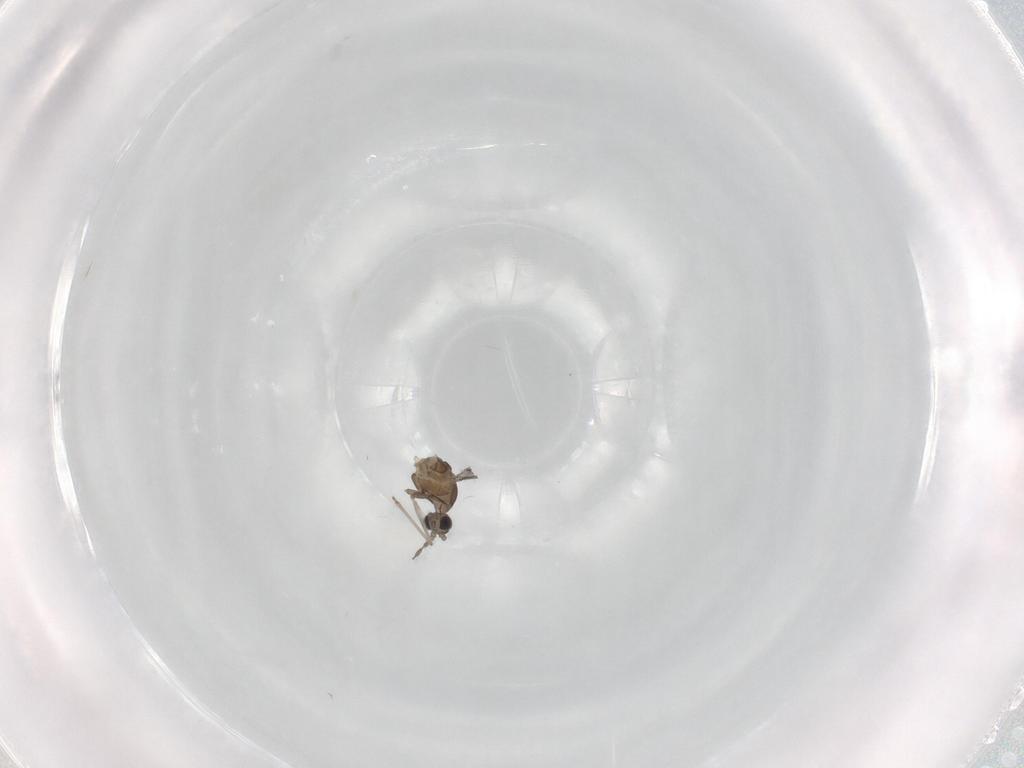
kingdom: Animalia
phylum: Arthropoda
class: Insecta
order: Diptera
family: Cecidomyiidae
